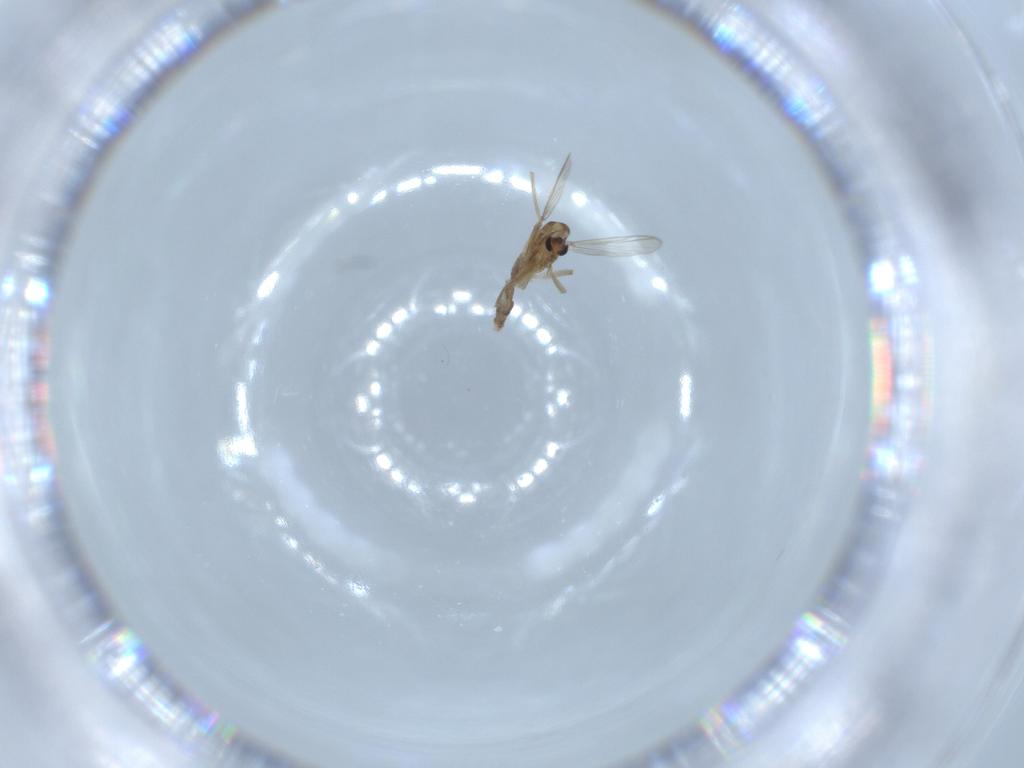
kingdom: Animalia
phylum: Arthropoda
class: Insecta
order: Diptera
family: Chironomidae
